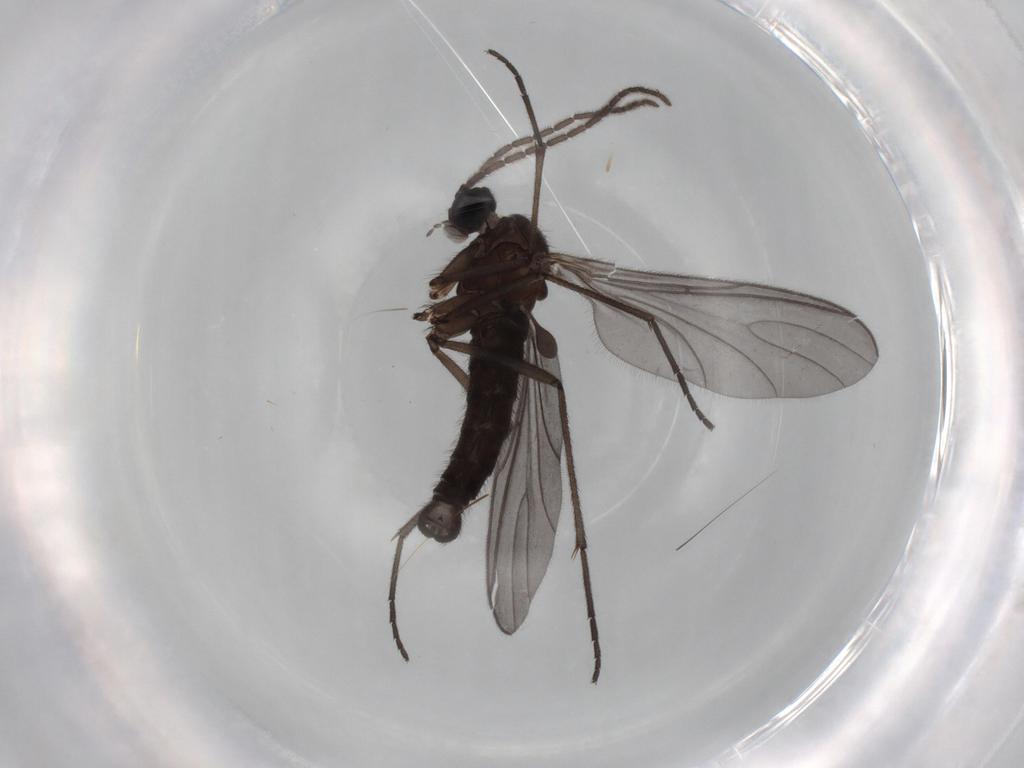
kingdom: Animalia
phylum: Arthropoda
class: Insecta
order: Diptera
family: Sciaridae
